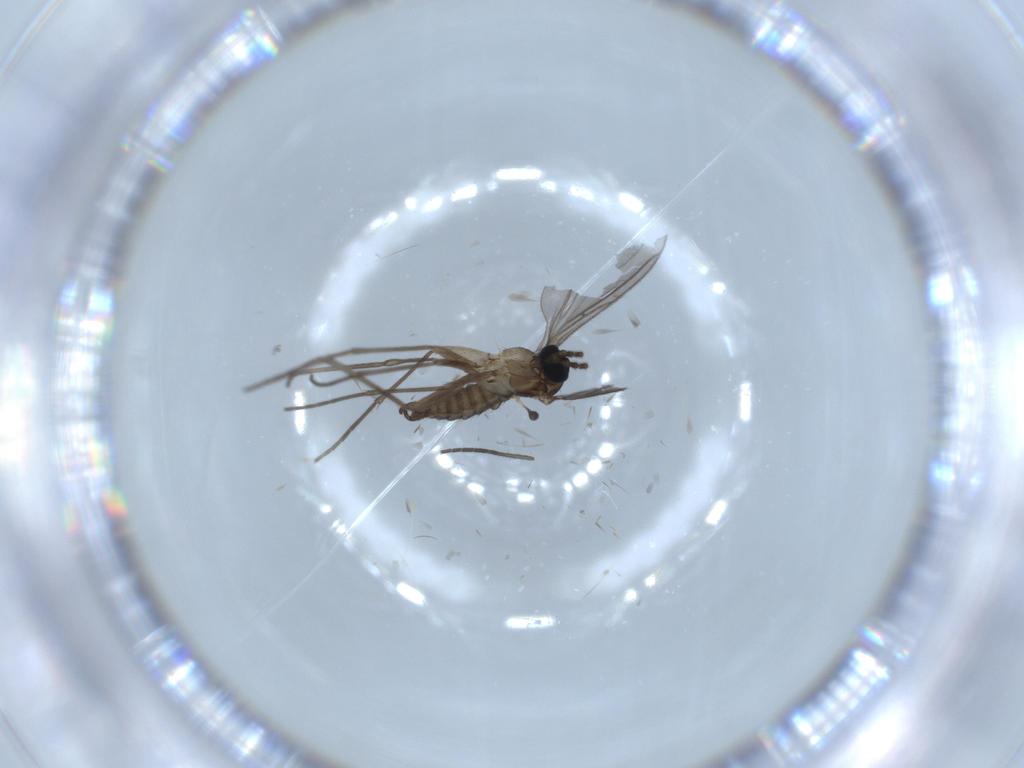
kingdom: Animalia
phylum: Arthropoda
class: Insecta
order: Diptera
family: Sciaridae
